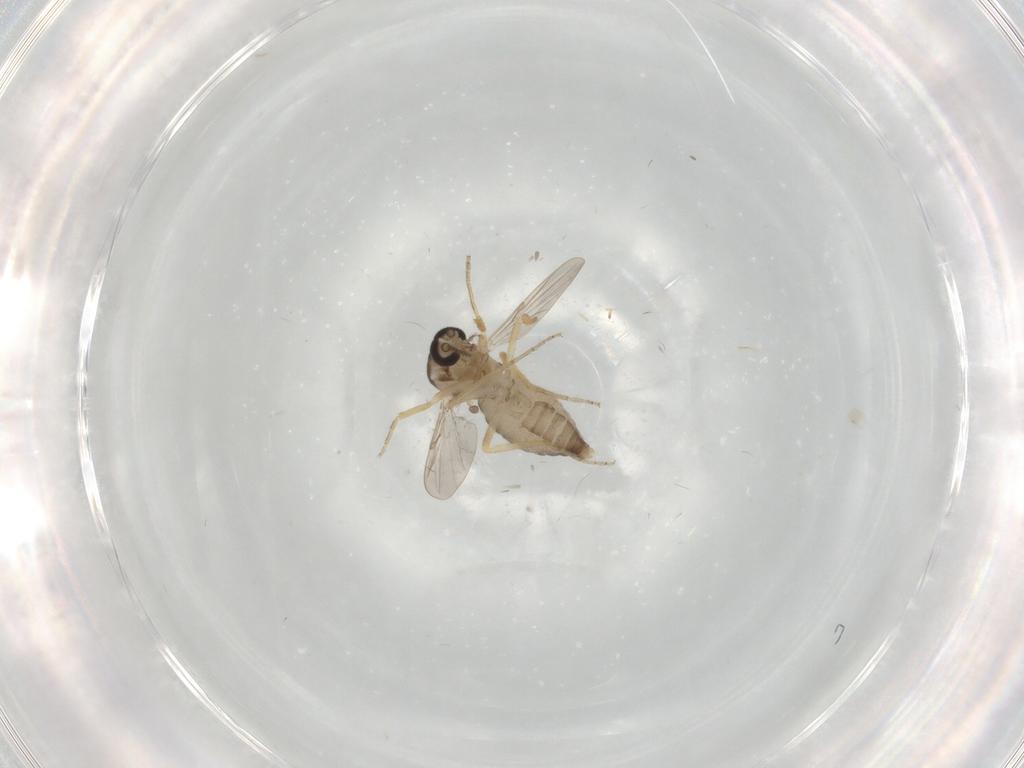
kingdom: Animalia
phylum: Arthropoda
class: Insecta
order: Diptera
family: Ceratopogonidae
